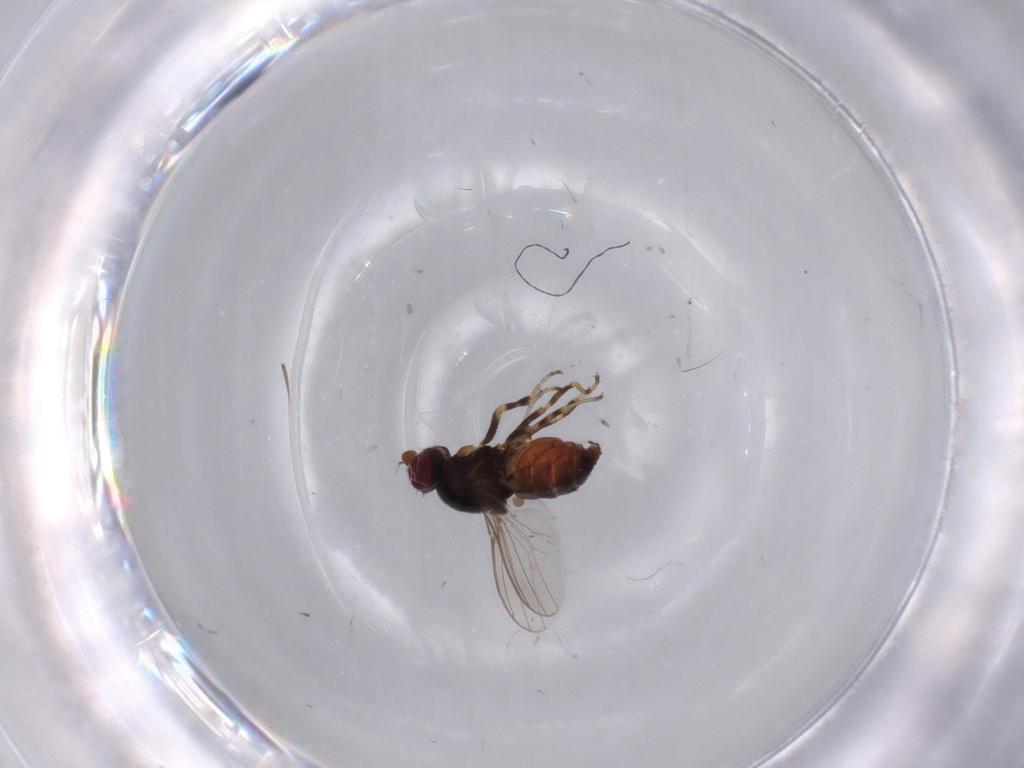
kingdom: Animalia
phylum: Arthropoda
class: Insecta
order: Diptera
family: Chloropidae
